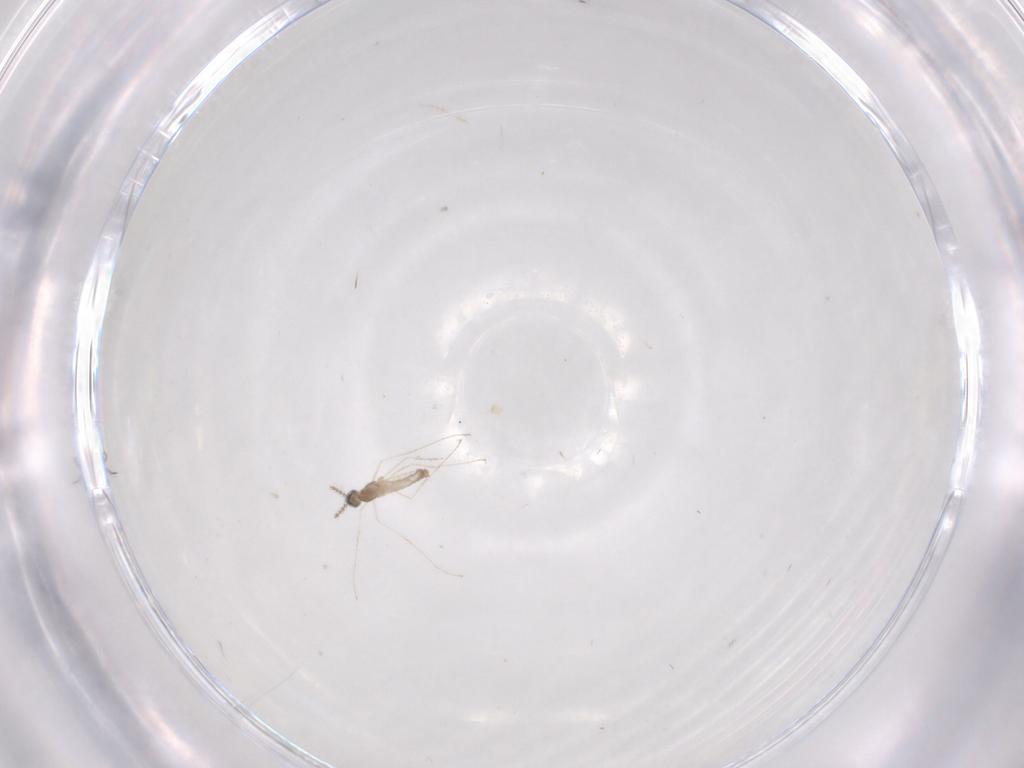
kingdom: Animalia
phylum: Arthropoda
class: Insecta
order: Diptera
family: Cecidomyiidae
